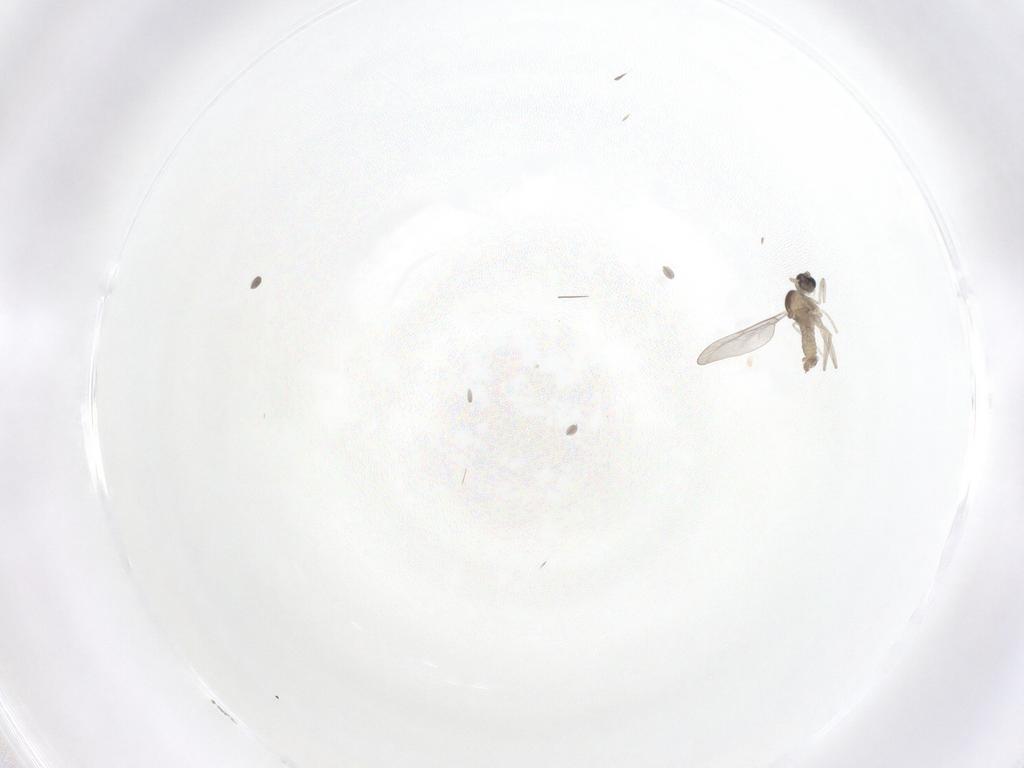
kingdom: Animalia
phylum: Arthropoda
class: Insecta
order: Diptera
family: Cecidomyiidae
